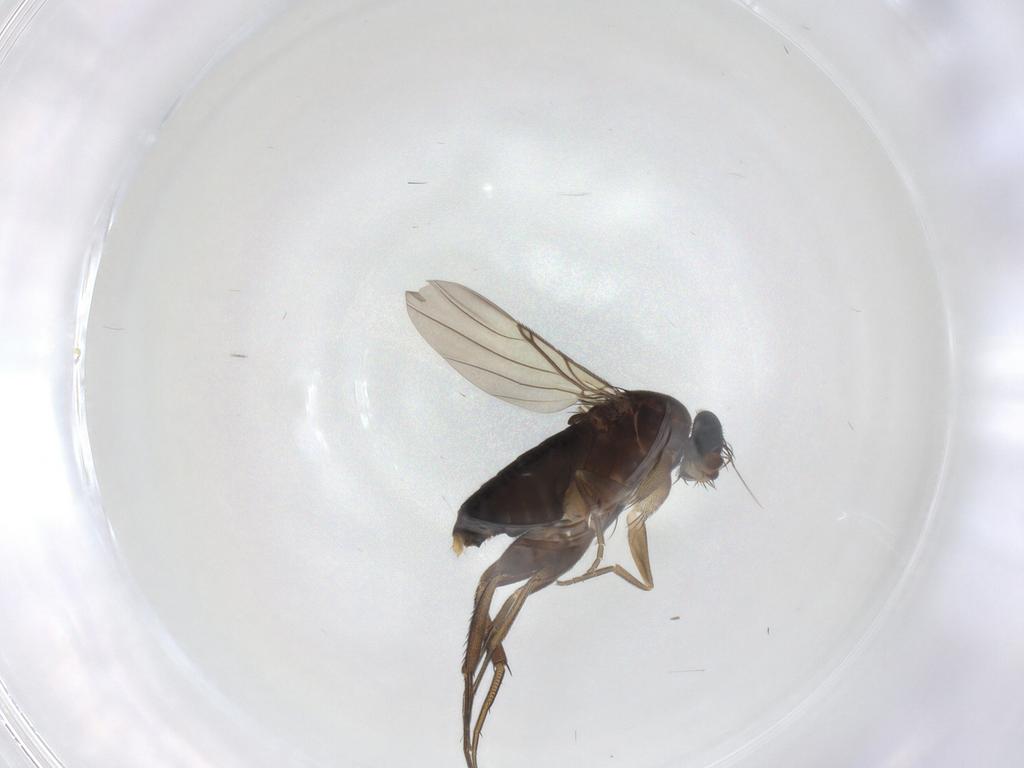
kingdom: Animalia
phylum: Arthropoda
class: Insecta
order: Diptera
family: Phoridae
